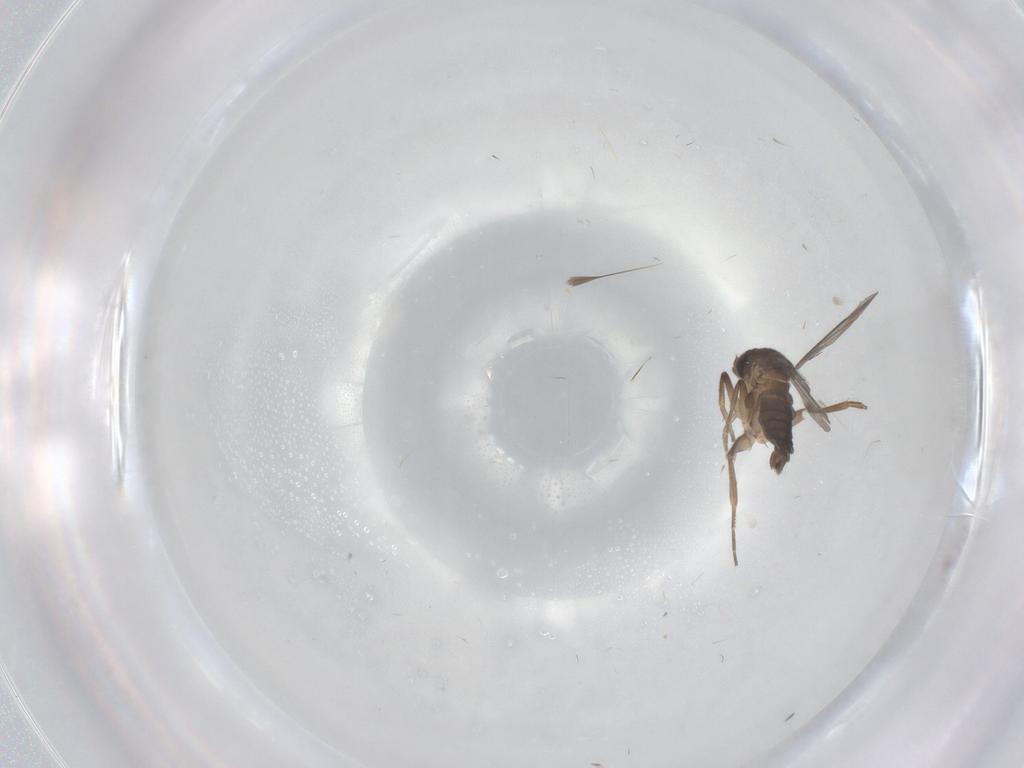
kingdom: Animalia
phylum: Arthropoda
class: Insecta
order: Diptera
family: Phoridae
